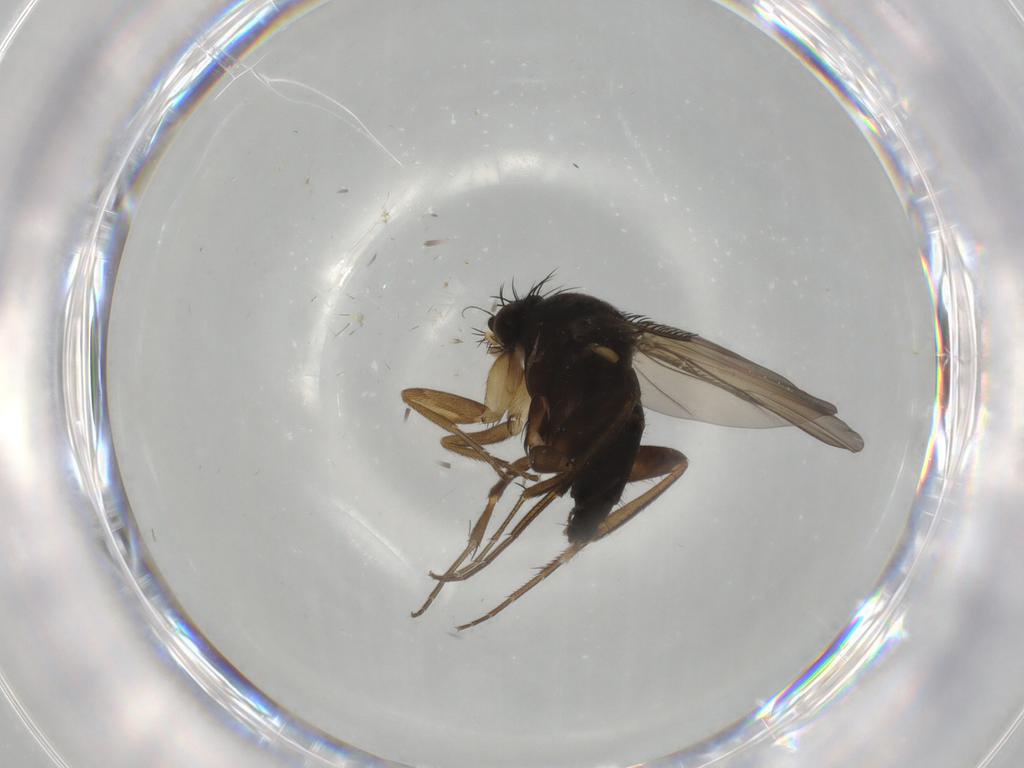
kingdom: Animalia
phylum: Arthropoda
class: Insecta
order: Diptera
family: Phoridae
